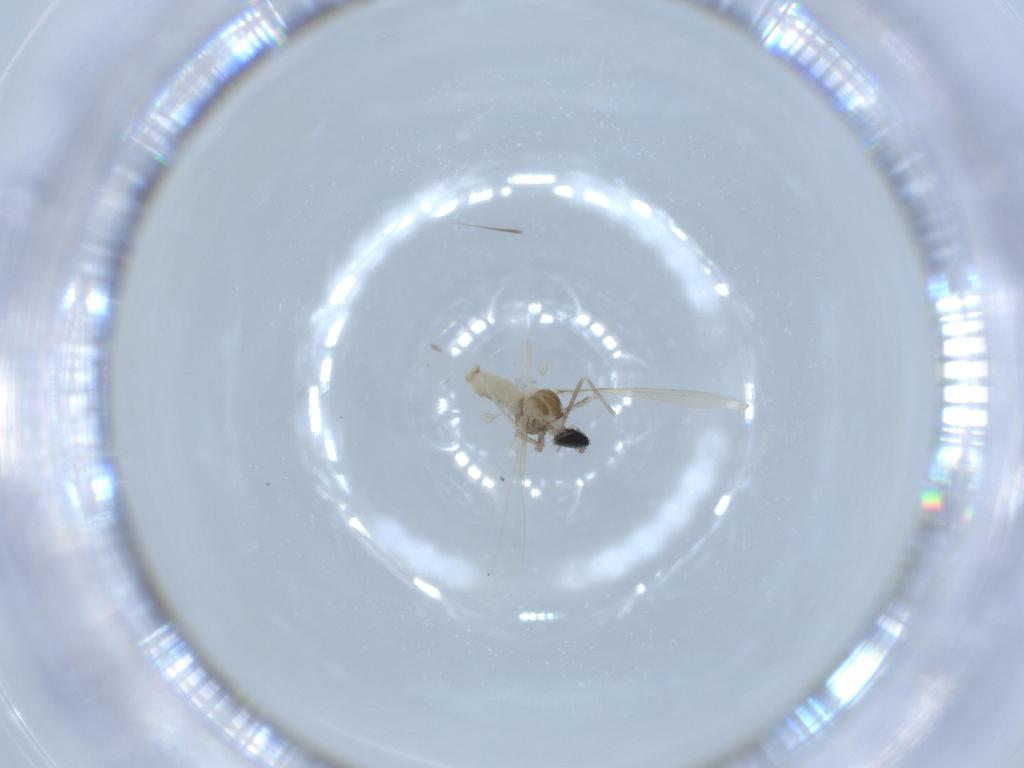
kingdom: Animalia
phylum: Arthropoda
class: Insecta
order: Diptera
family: Cecidomyiidae
